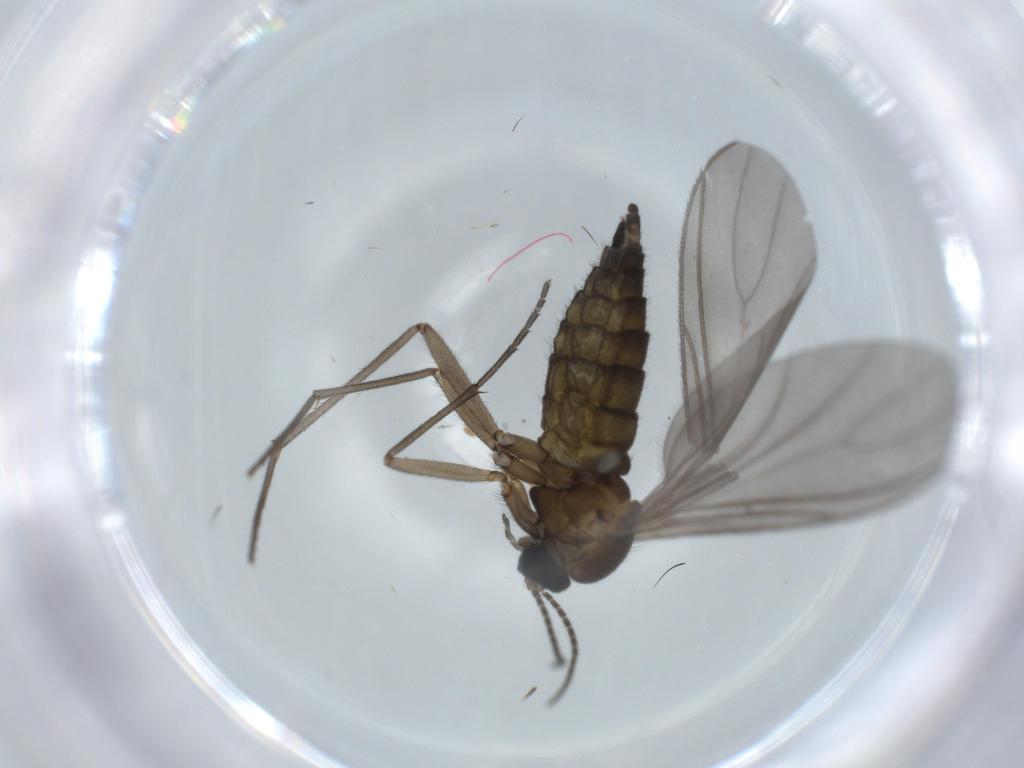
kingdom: Animalia
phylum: Arthropoda
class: Insecta
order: Diptera
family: Sciaridae
